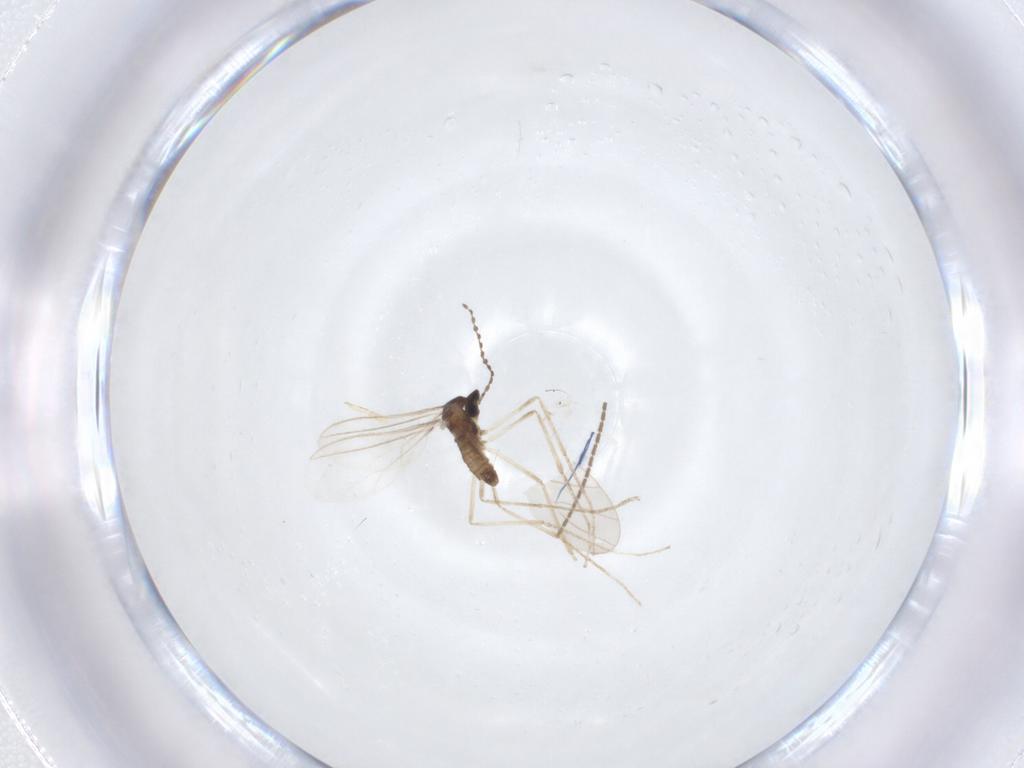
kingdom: Animalia
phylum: Arthropoda
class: Insecta
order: Diptera
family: Cecidomyiidae
